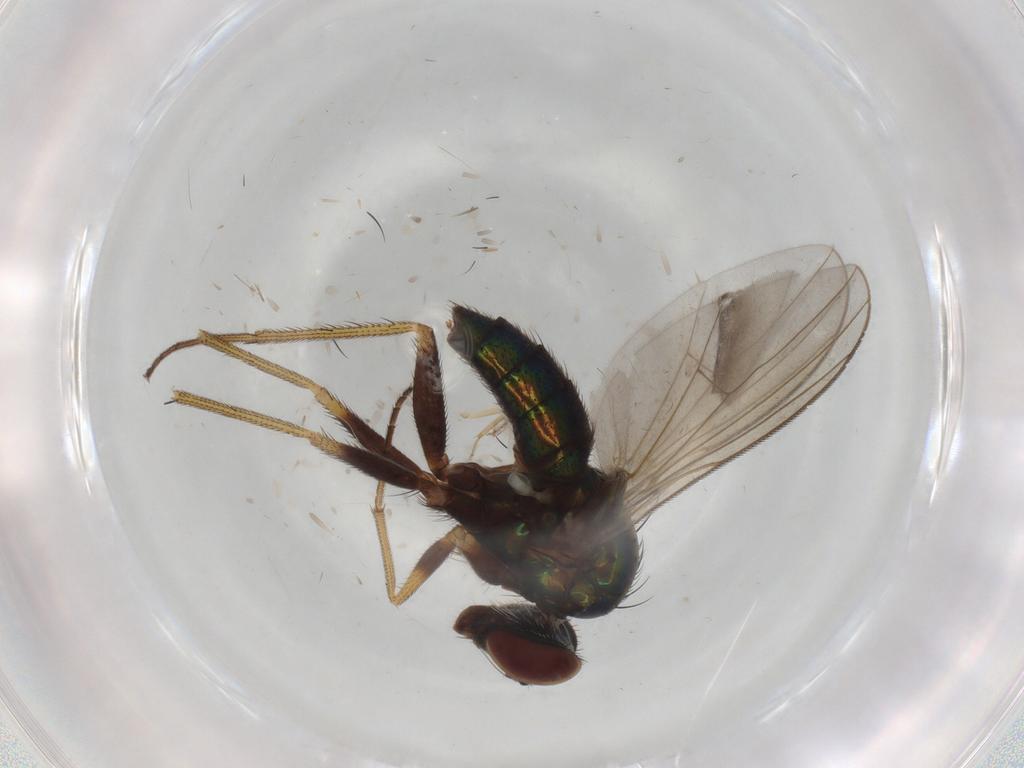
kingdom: Animalia
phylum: Arthropoda
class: Insecta
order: Diptera
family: Dolichopodidae
